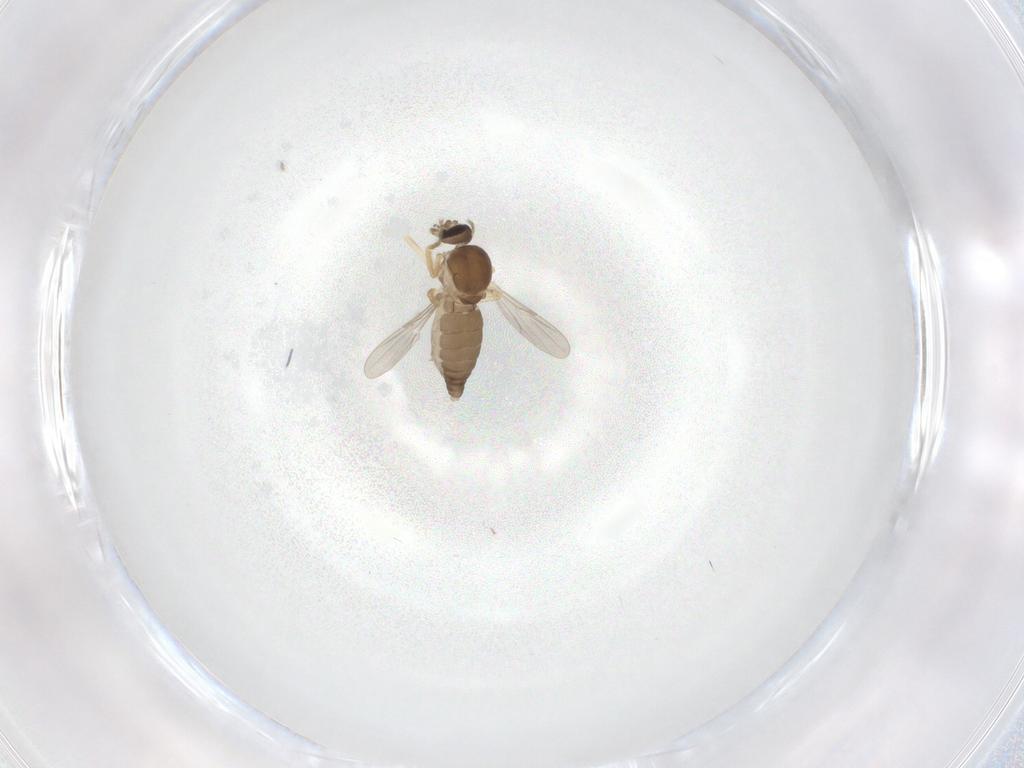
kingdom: Animalia
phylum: Arthropoda
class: Insecta
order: Diptera
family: Ceratopogonidae
